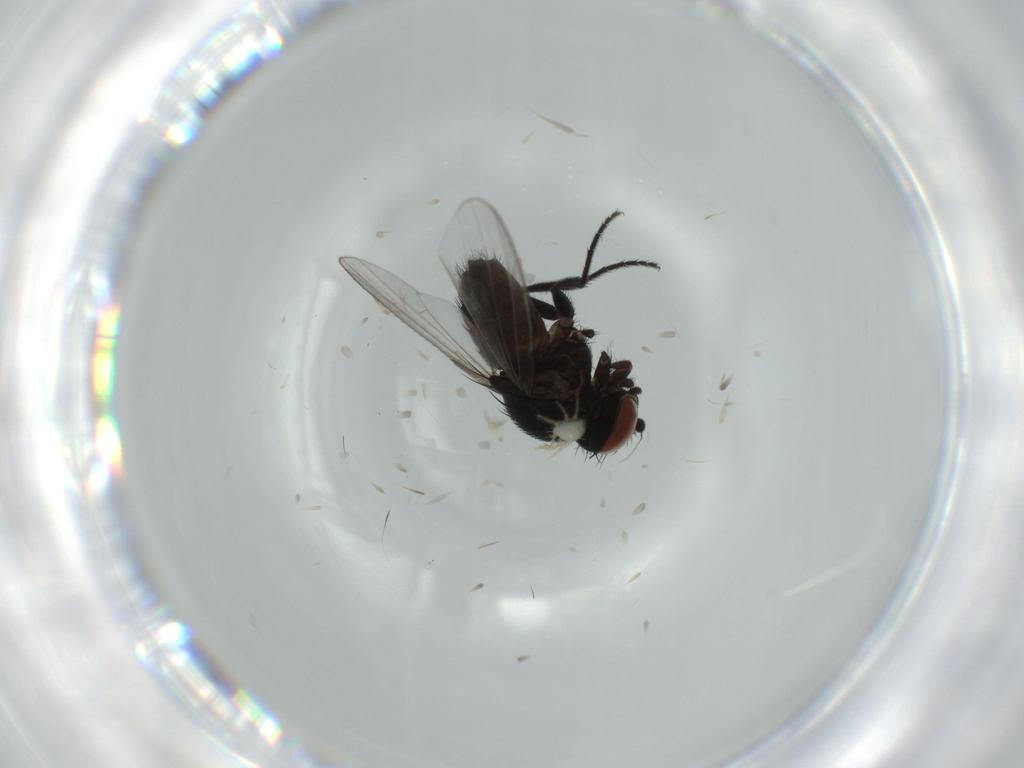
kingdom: Animalia
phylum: Arthropoda
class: Insecta
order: Diptera
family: Milichiidae
